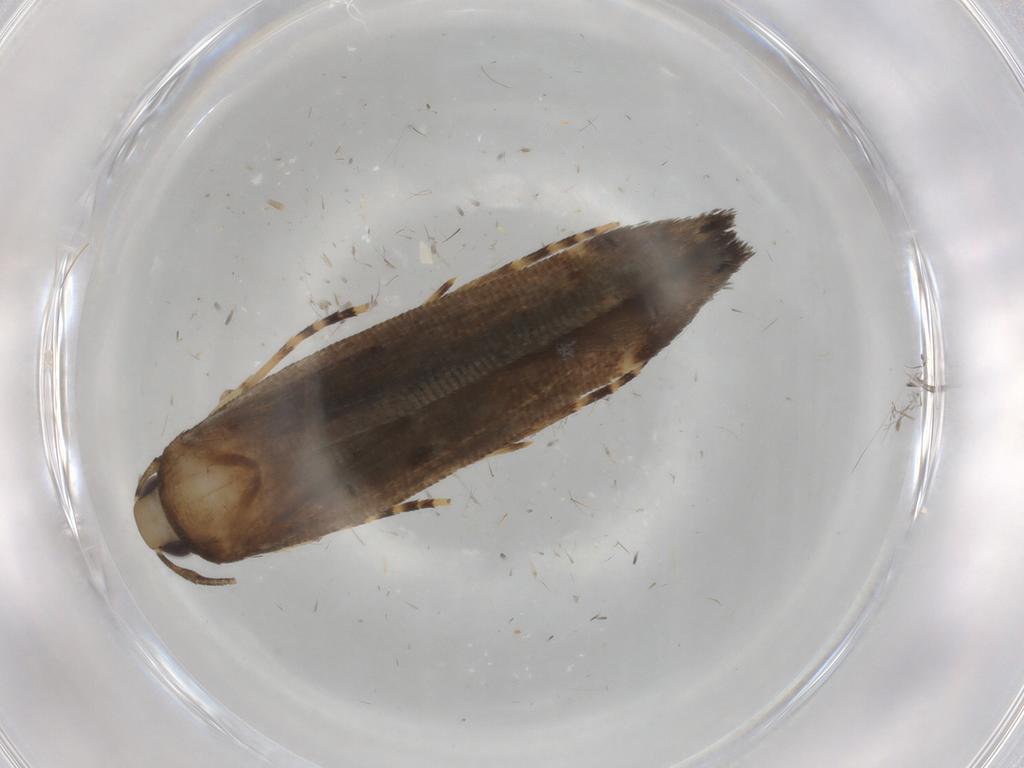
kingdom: Animalia
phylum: Arthropoda
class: Insecta
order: Lepidoptera
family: Cosmopterigidae
